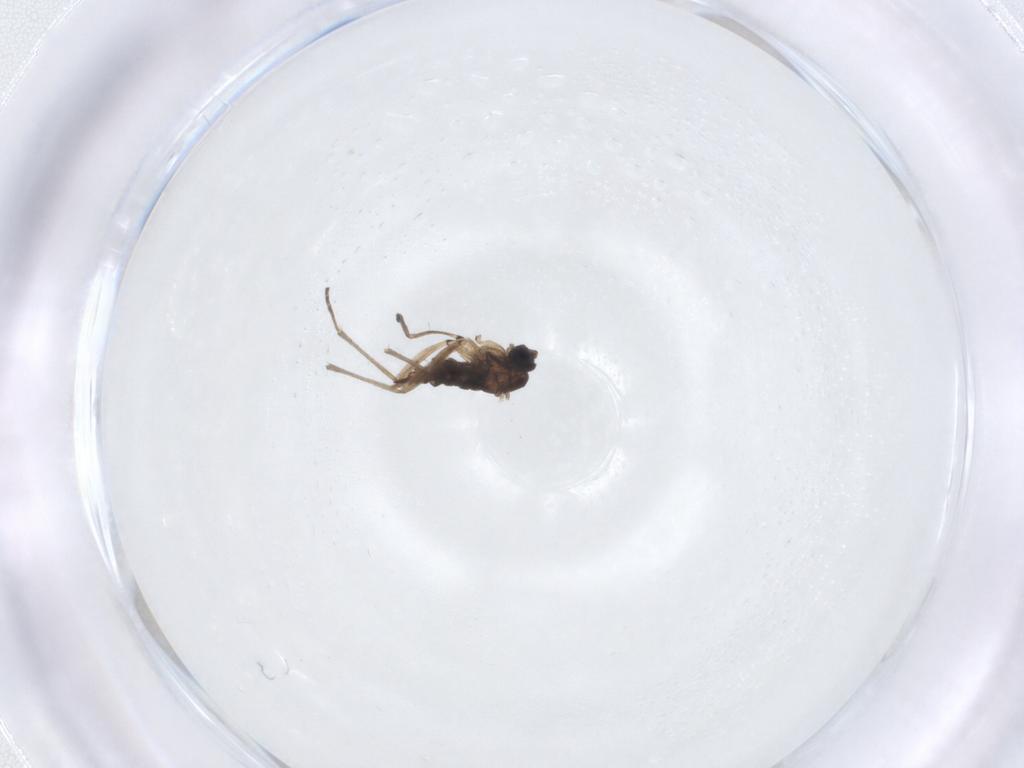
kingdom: Animalia
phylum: Arthropoda
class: Insecta
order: Diptera
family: Sciaridae
